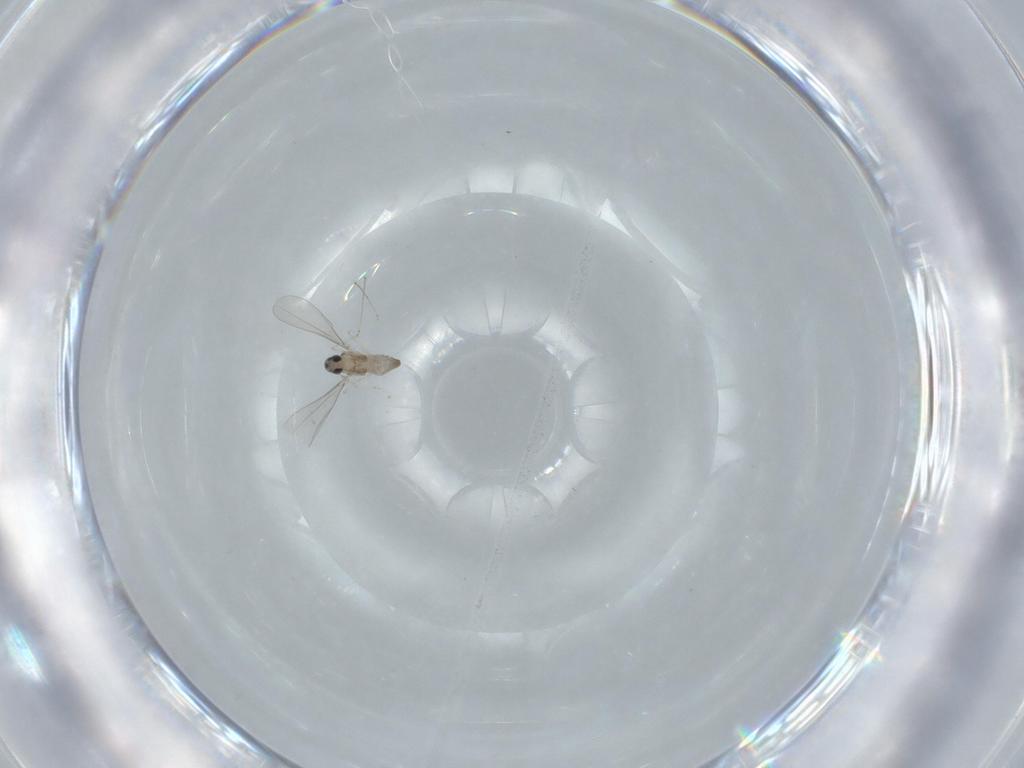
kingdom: Animalia
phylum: Arthropoda
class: Insecta
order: Diptera
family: Cecidomyiidae
